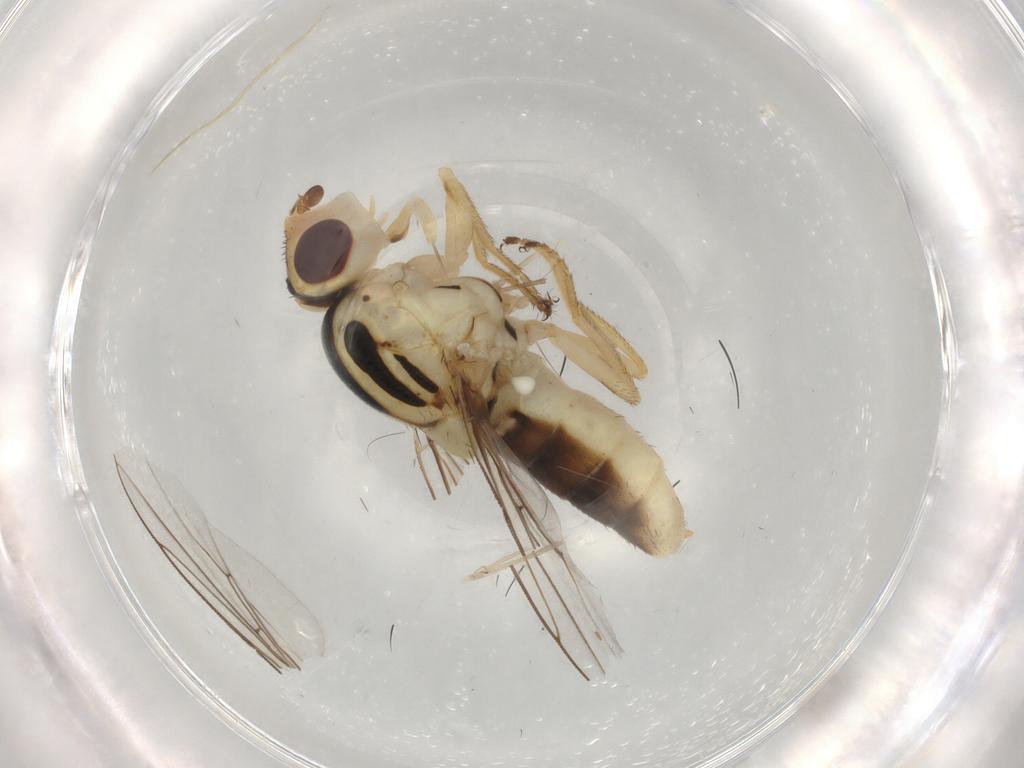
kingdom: Animalia
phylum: Arthropoda
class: Insecta
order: Diptera
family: Chloropidae
